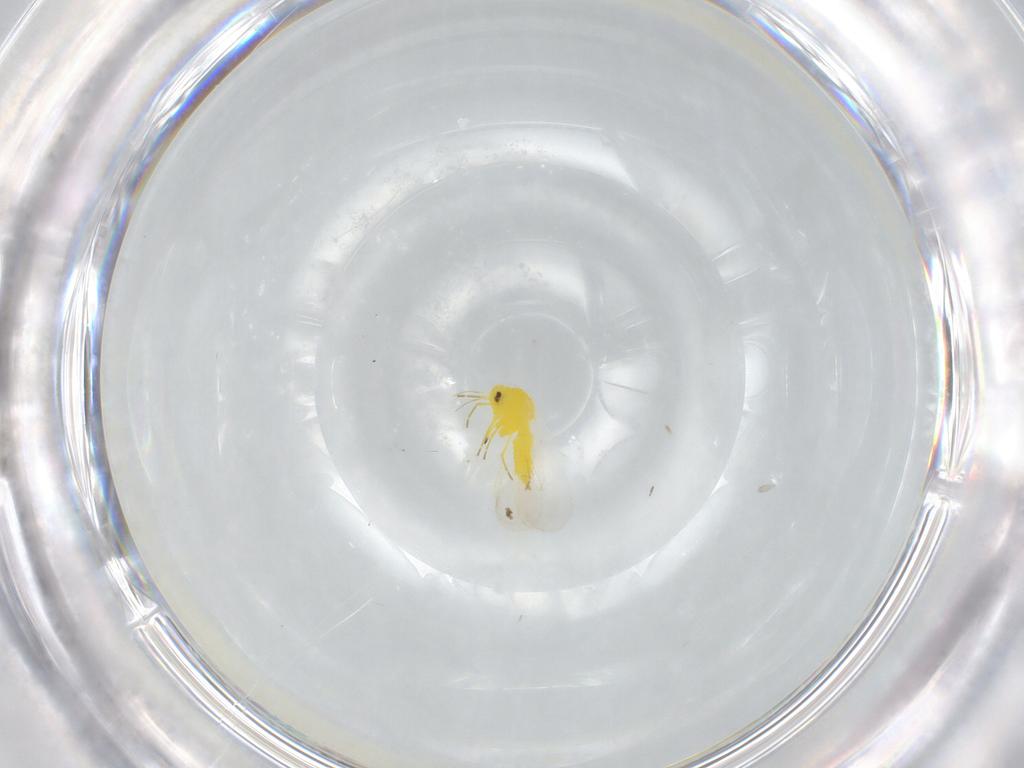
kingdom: Animalia
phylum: Arthropoda
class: Insecta
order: Hemiptera
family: Aleyrodidae
